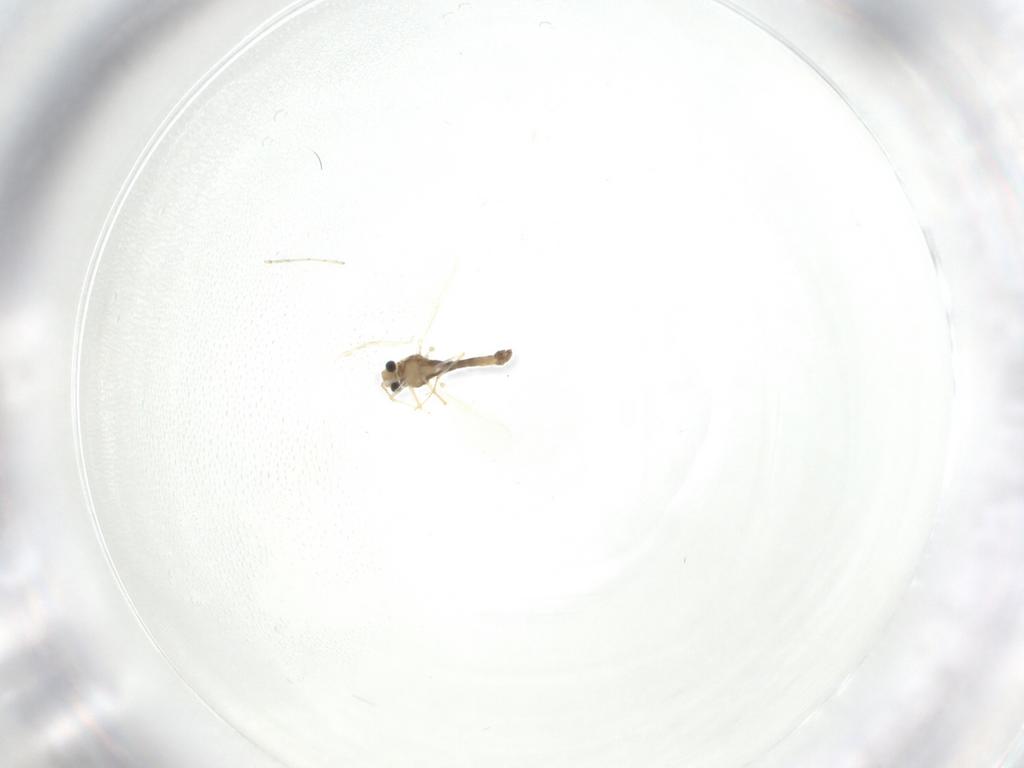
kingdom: Animalia
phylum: Arthropoda
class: Insecta
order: Diptera
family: Chironomidae
